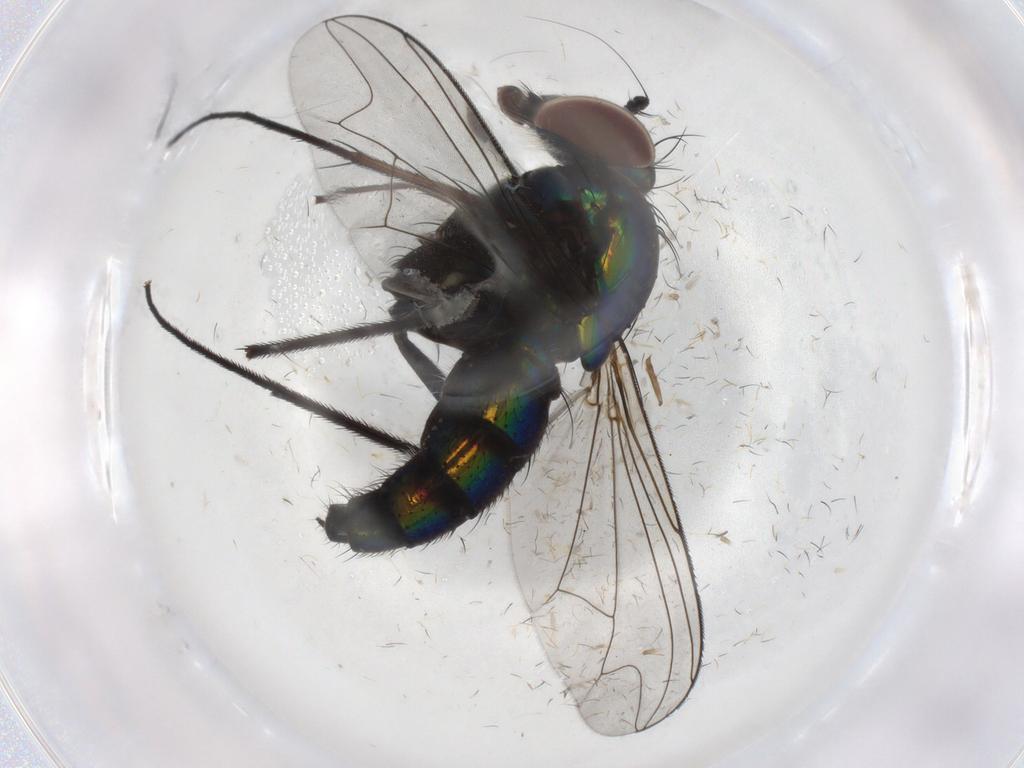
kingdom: Animalia
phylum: Arthropoda
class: Insecta
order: Diptera
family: Dolichopodidae
